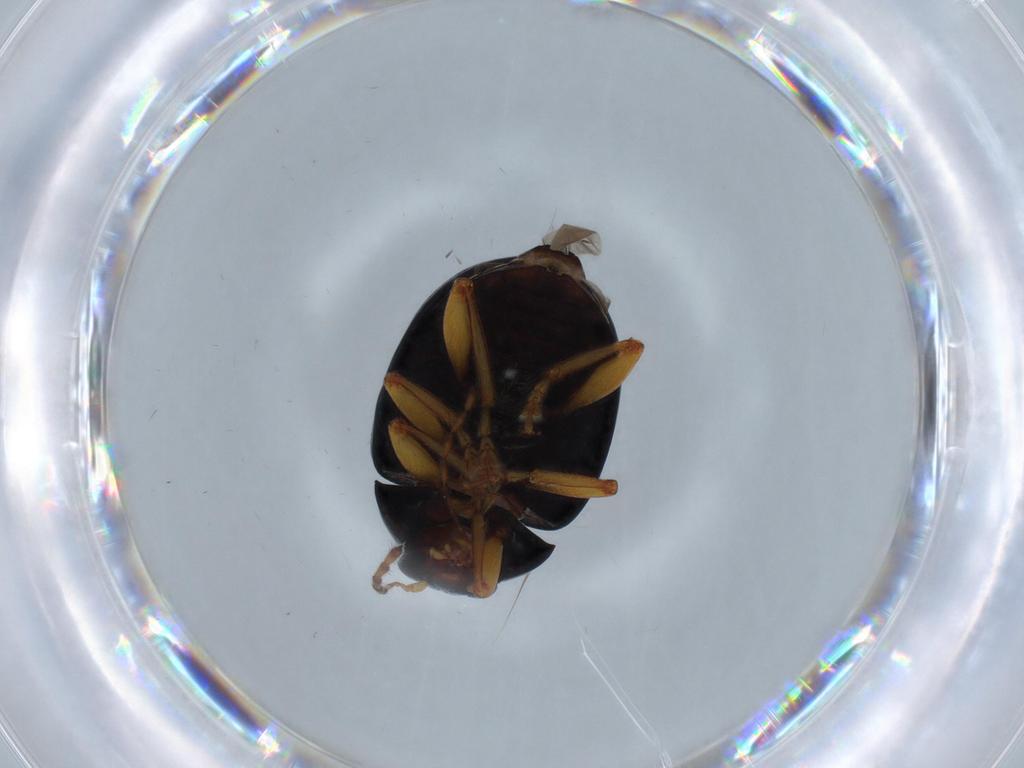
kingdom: Animalia
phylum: Arthropoda
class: Insecta
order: Coleoptera
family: Chrysomelidae
